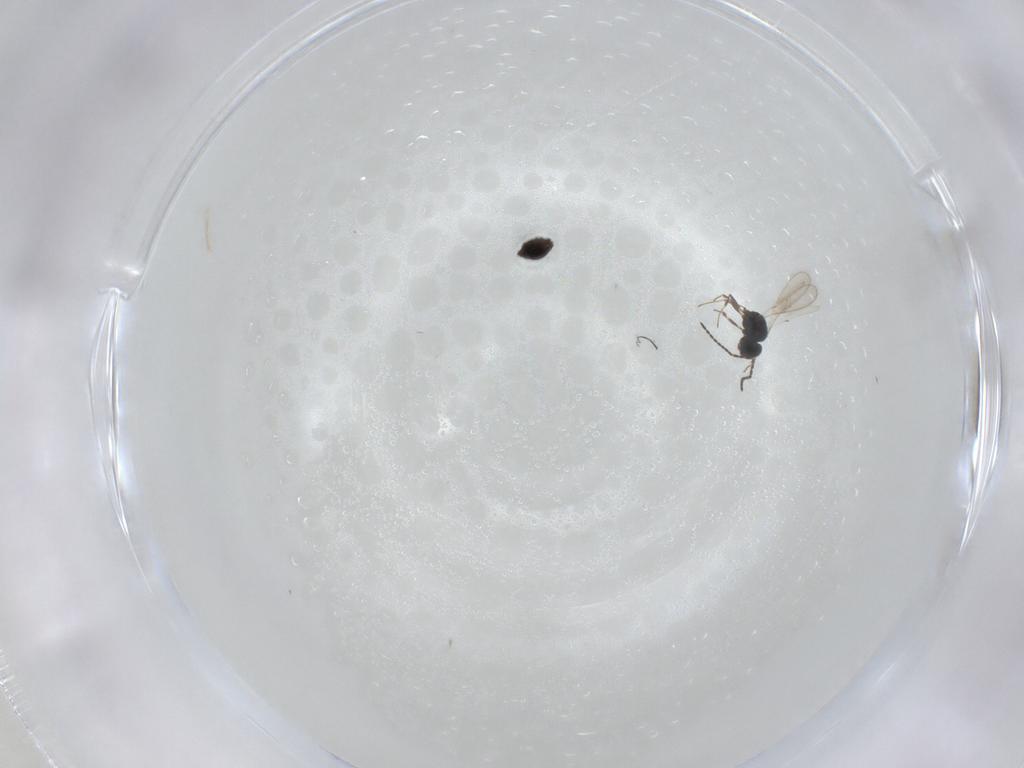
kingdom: Animalia
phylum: Arthropoda
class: Insecta
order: Hymenoptera
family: Scelionidae
